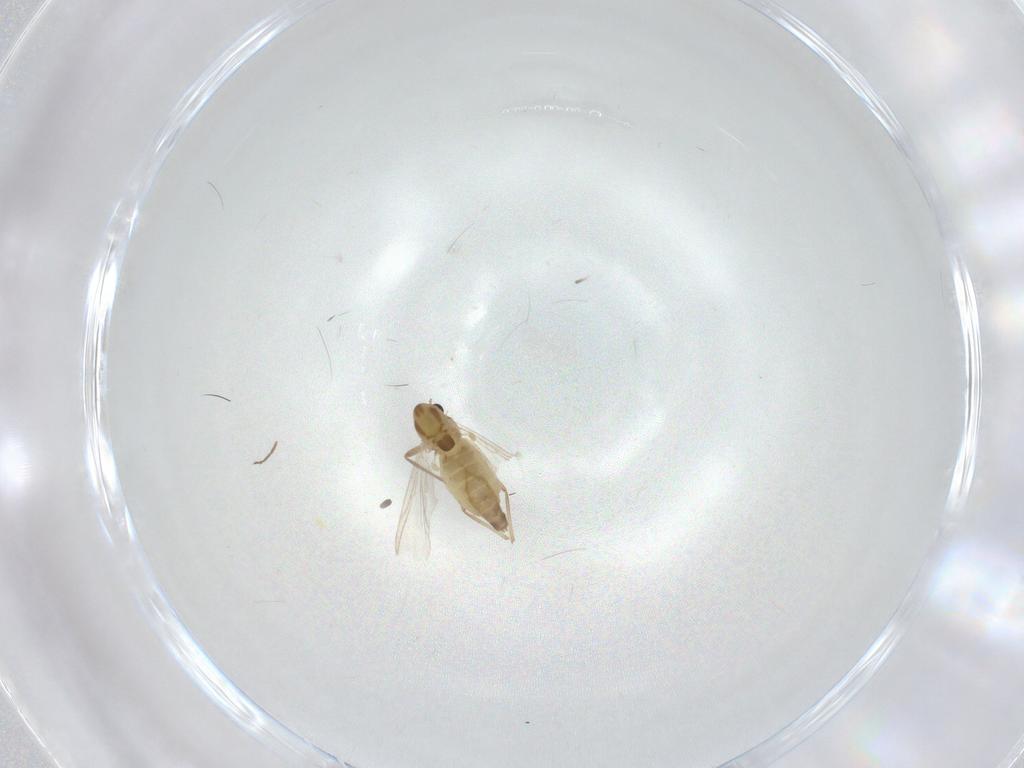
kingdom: Animalia
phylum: Arthropoda
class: Insecta
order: Diptera
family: Chironomidae
